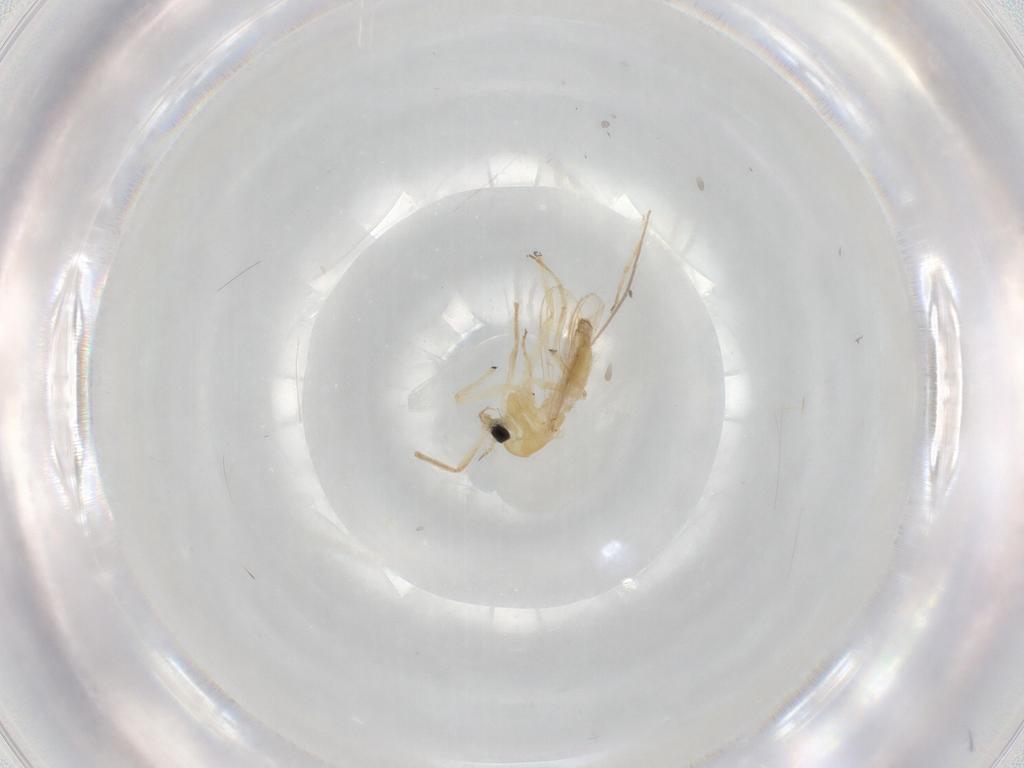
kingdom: Animalia
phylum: Arthropoda
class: Insecta
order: Diptera
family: Chironomidae
